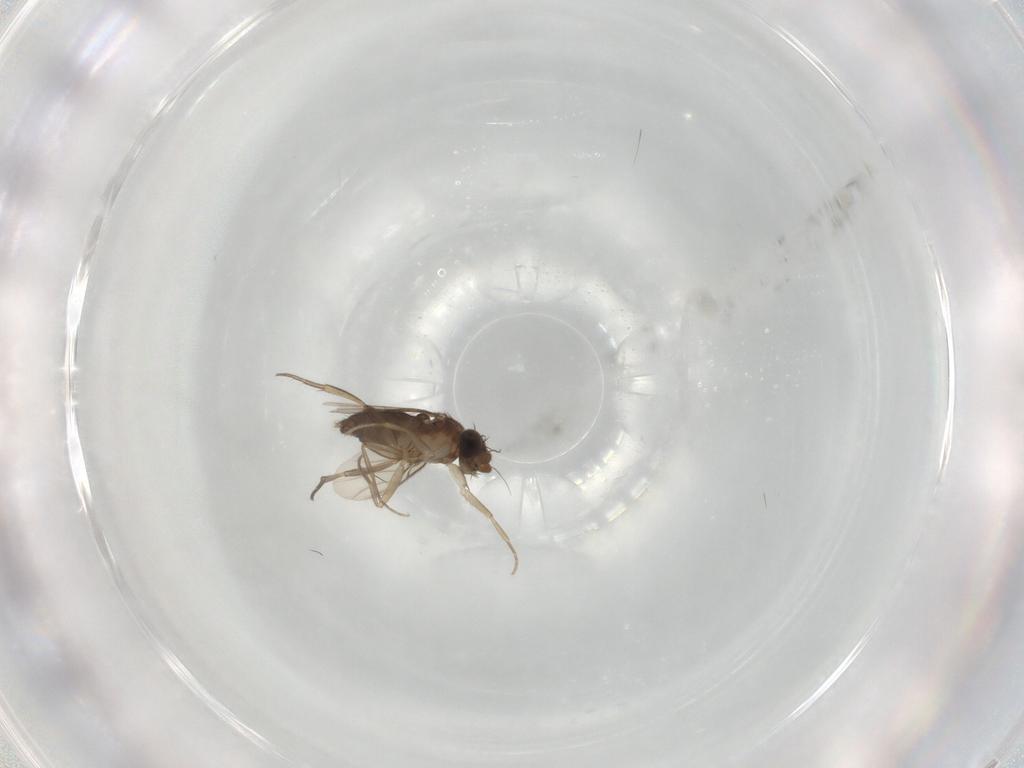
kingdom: Animalia
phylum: Arthropoda
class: Insecta
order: Diptera
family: Phoridae
